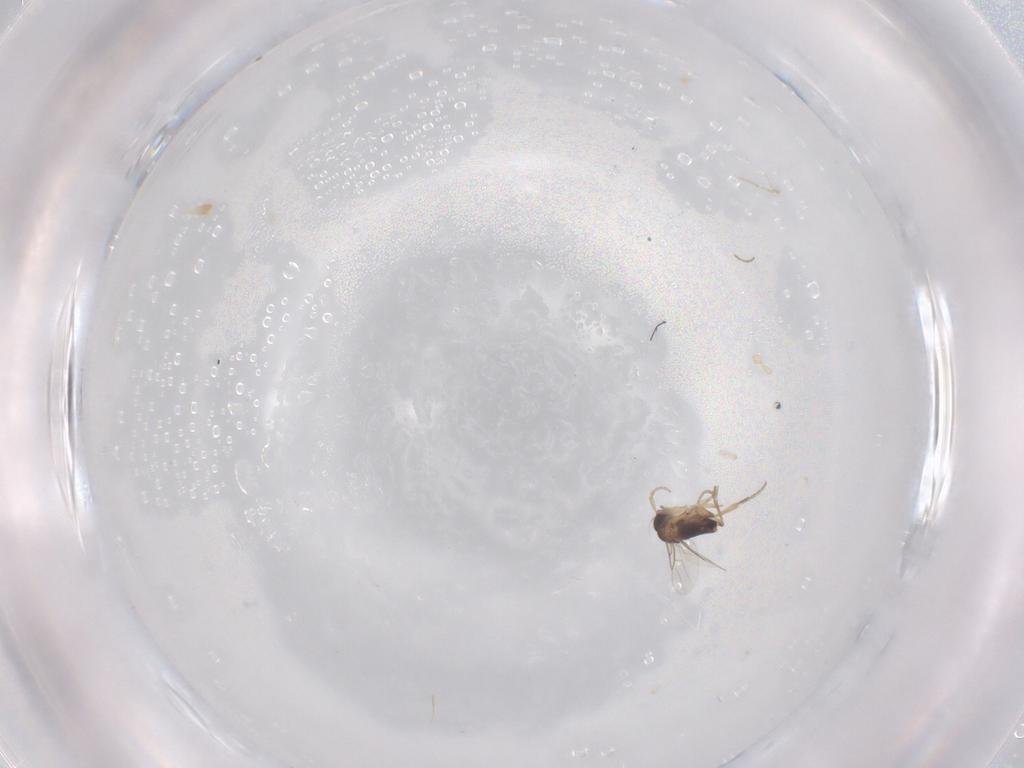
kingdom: Animalia
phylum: Arthropoda
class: Insecta
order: Diptera
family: Phoridae
